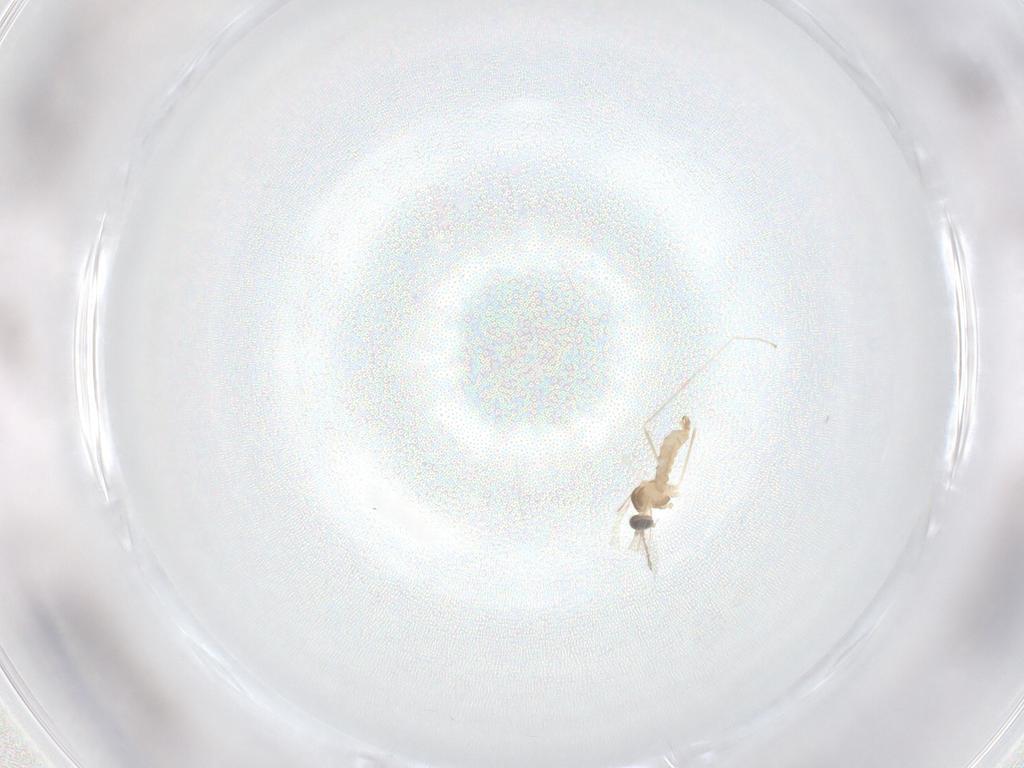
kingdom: Animalia
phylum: Arthropoda
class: Insecta
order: Diptera
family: Cecidomyiidae
